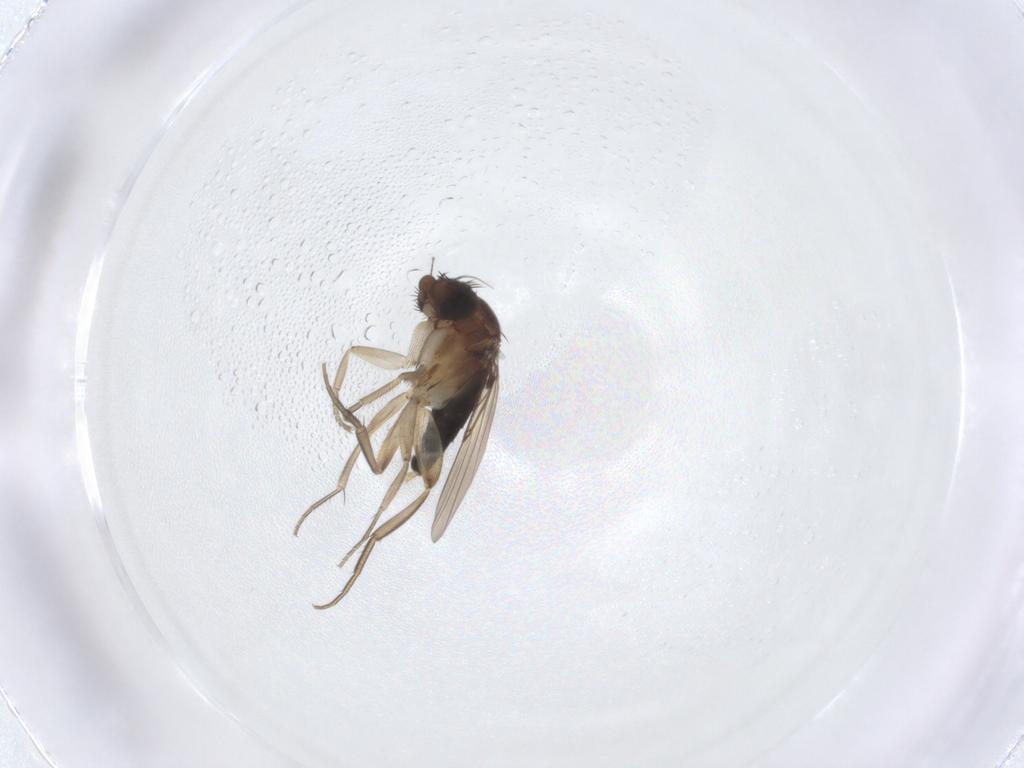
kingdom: Animalia
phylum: Arthropoda
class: Insecta
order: Diptera
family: Phoridae
